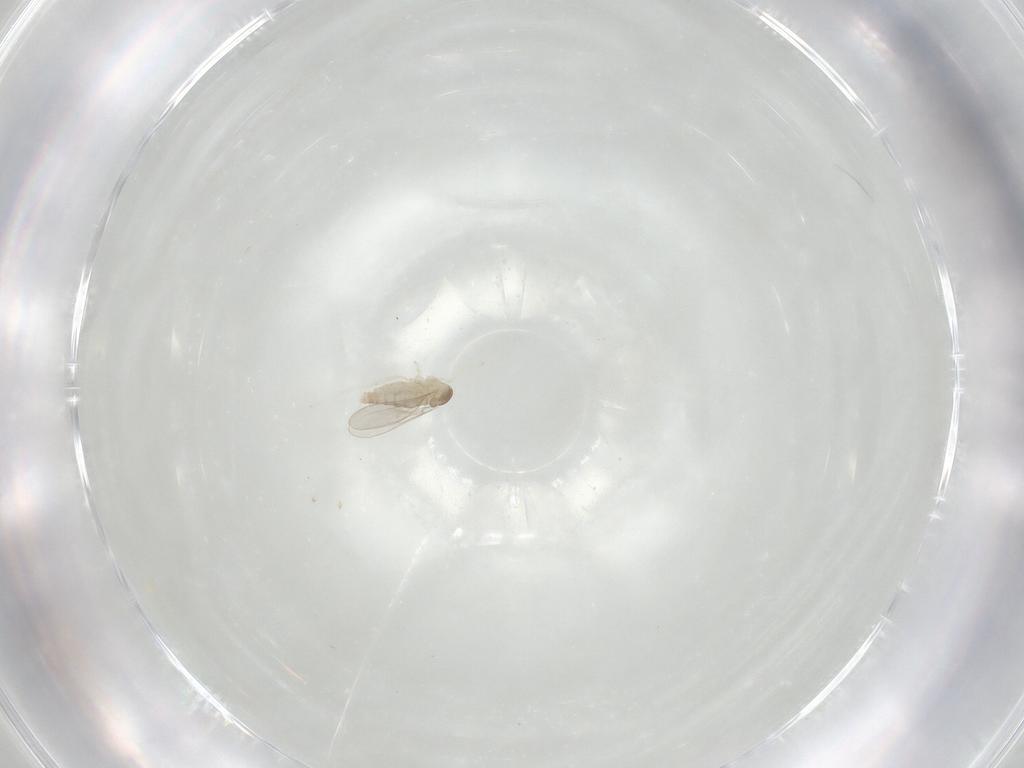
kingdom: Animalia
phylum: Arthropoda
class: Insecta
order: Diptera
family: Cecidomyiidae
